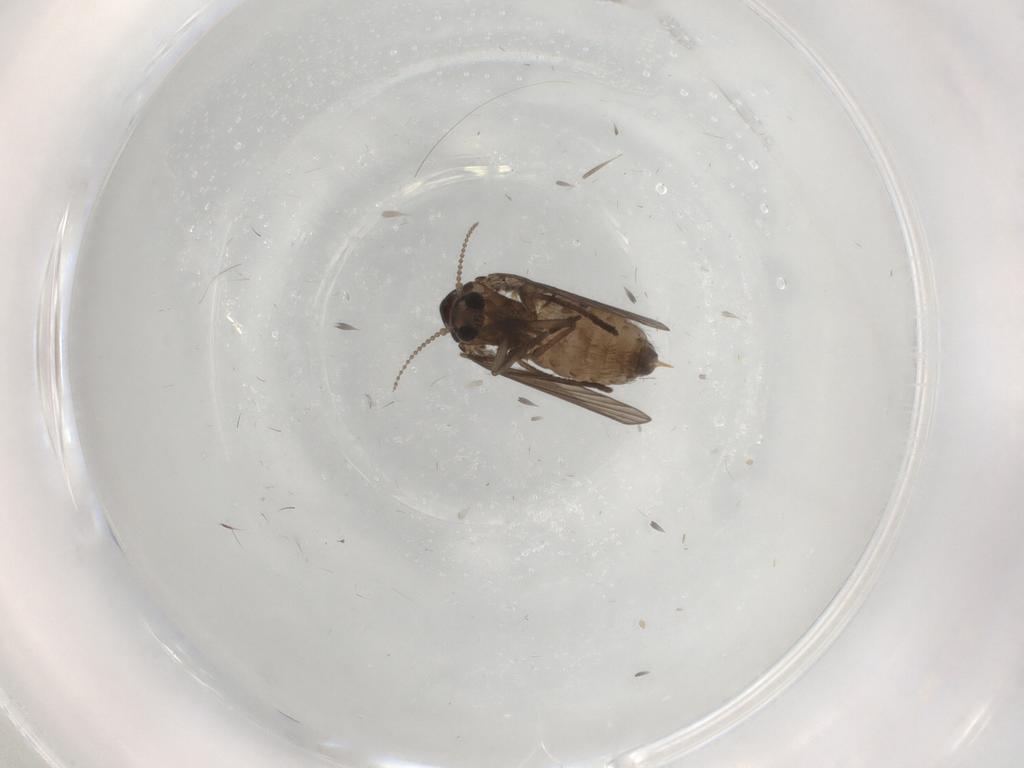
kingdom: Animalia
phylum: Arthropoda
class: Insecta
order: Diptera
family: Psychodidae
